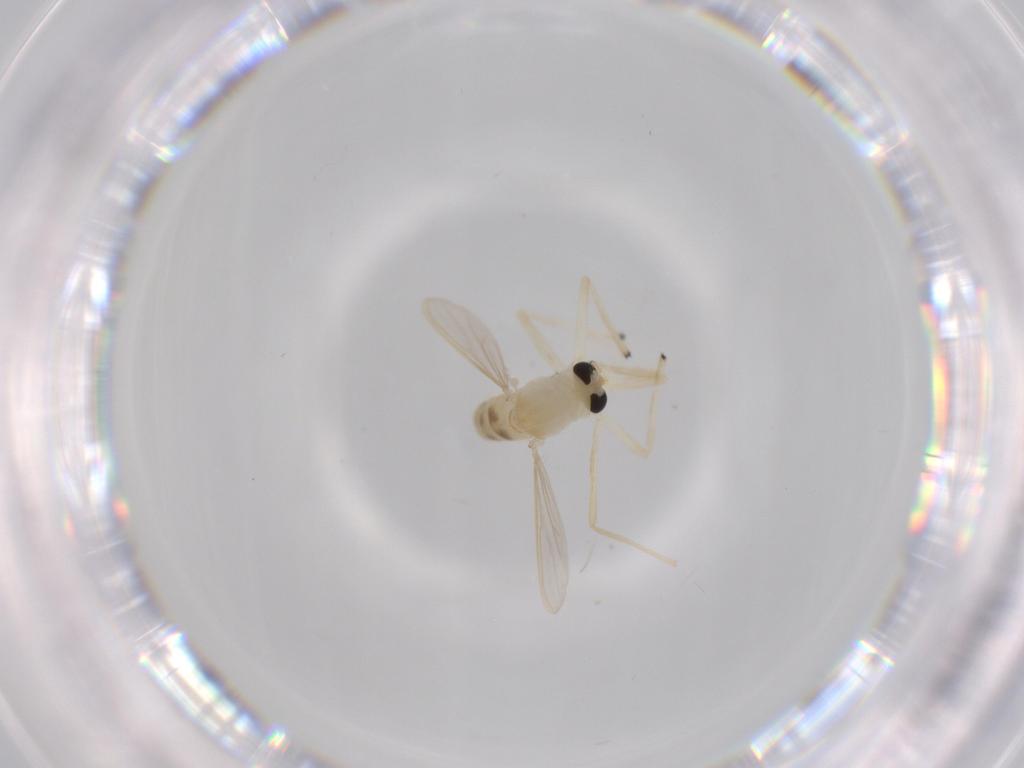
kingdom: Animalia
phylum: Arthropoda
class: Insecta
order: Diptera
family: Chironomidae
